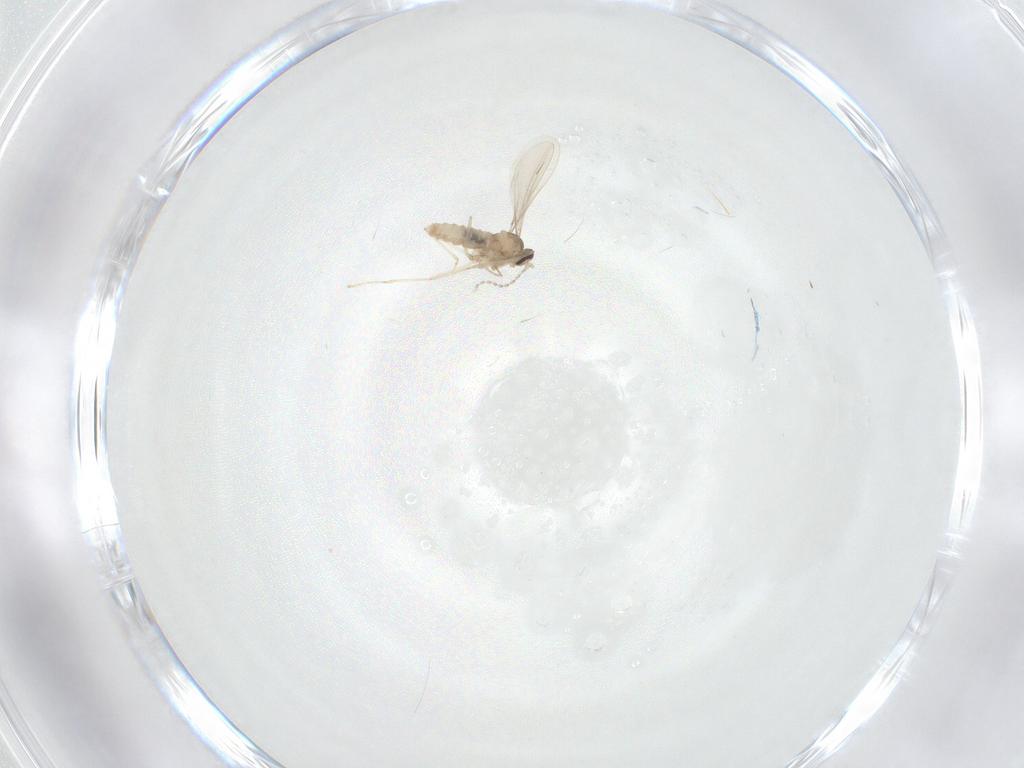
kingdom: Animalia
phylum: Arthropoda
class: Insecta
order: Diptera
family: Cecidomyiidae
